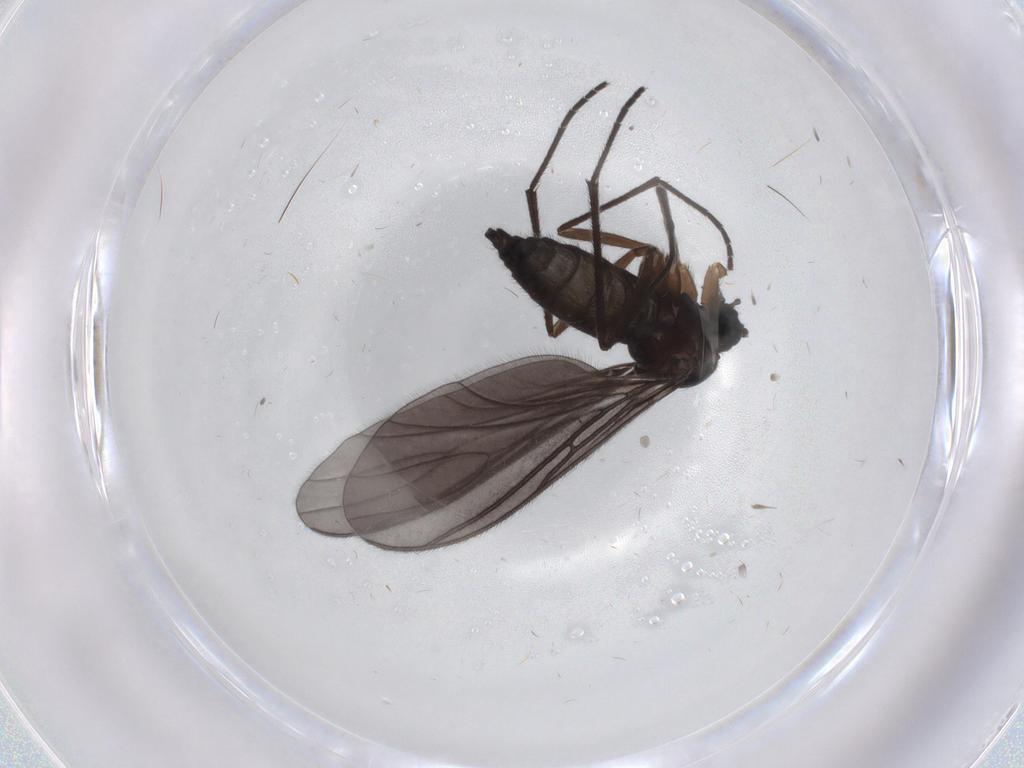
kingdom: Animalia
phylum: Arthropoda
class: Insecta
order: Diptera
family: Sciaridae
